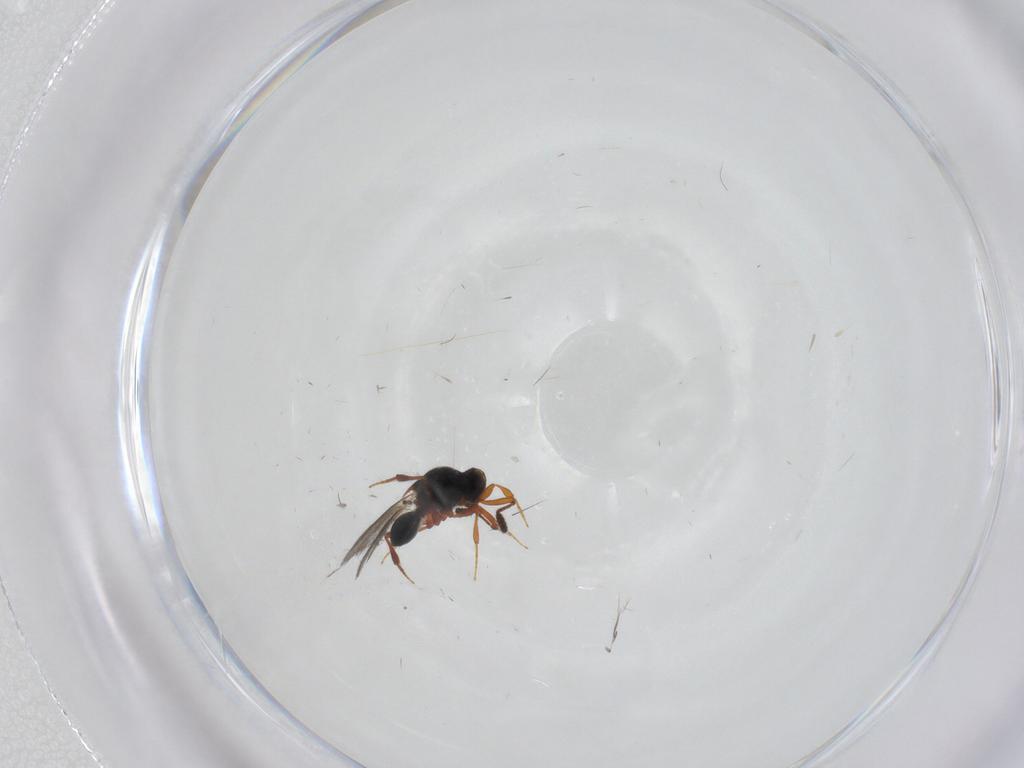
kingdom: Animalia
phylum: Arthropoda
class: Insecta
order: Hymenoptera
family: Platygastridae
